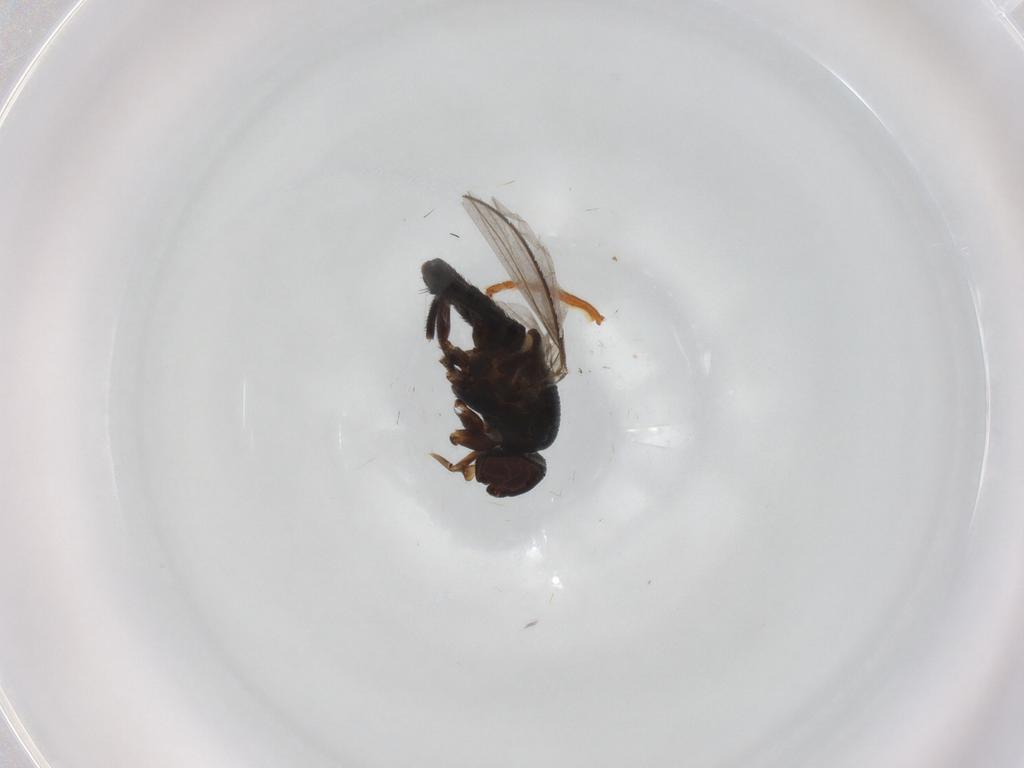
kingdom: Animalia
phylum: Arthropoda
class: Insecta
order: Diptera
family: Milichiidae
